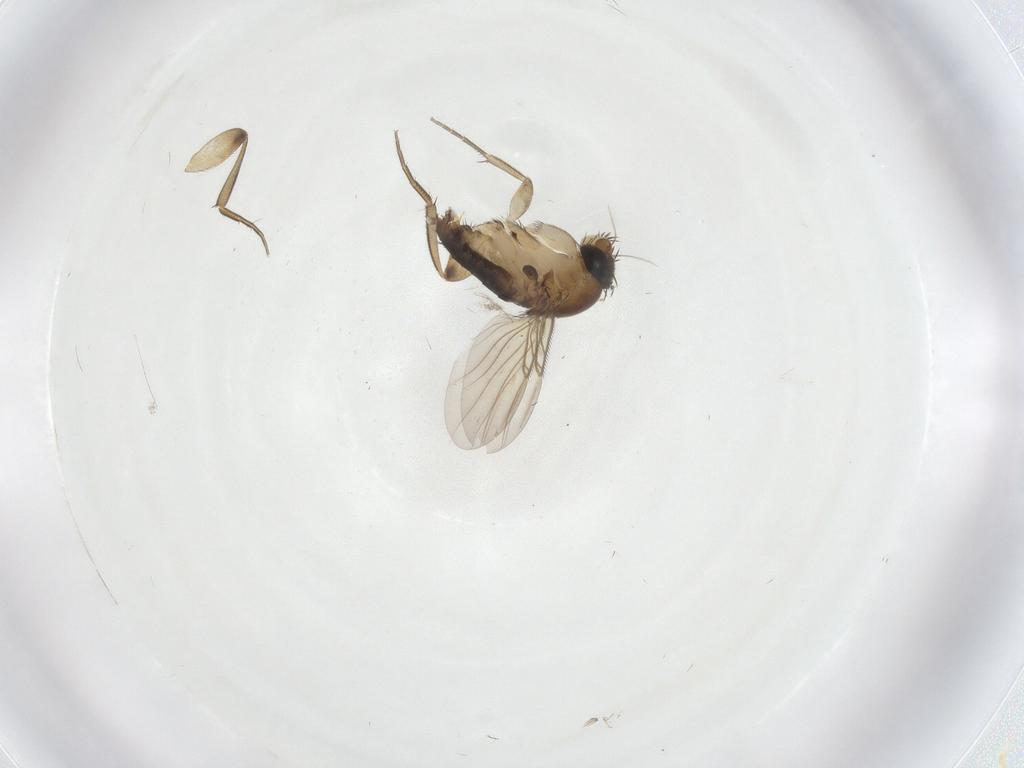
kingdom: Animalia
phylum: Arthropoda
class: Insecta
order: Diptera
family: Phoridae
